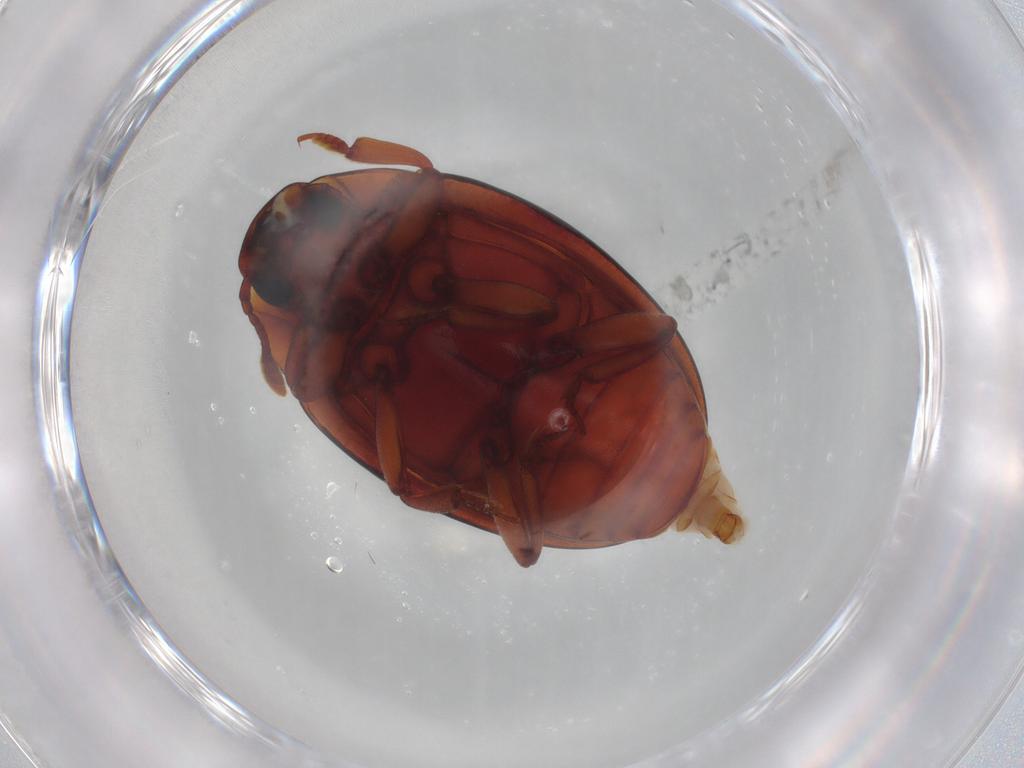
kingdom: Animalia
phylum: Arthropoda
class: Insecta
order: Coleoptera
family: Zopheridae
